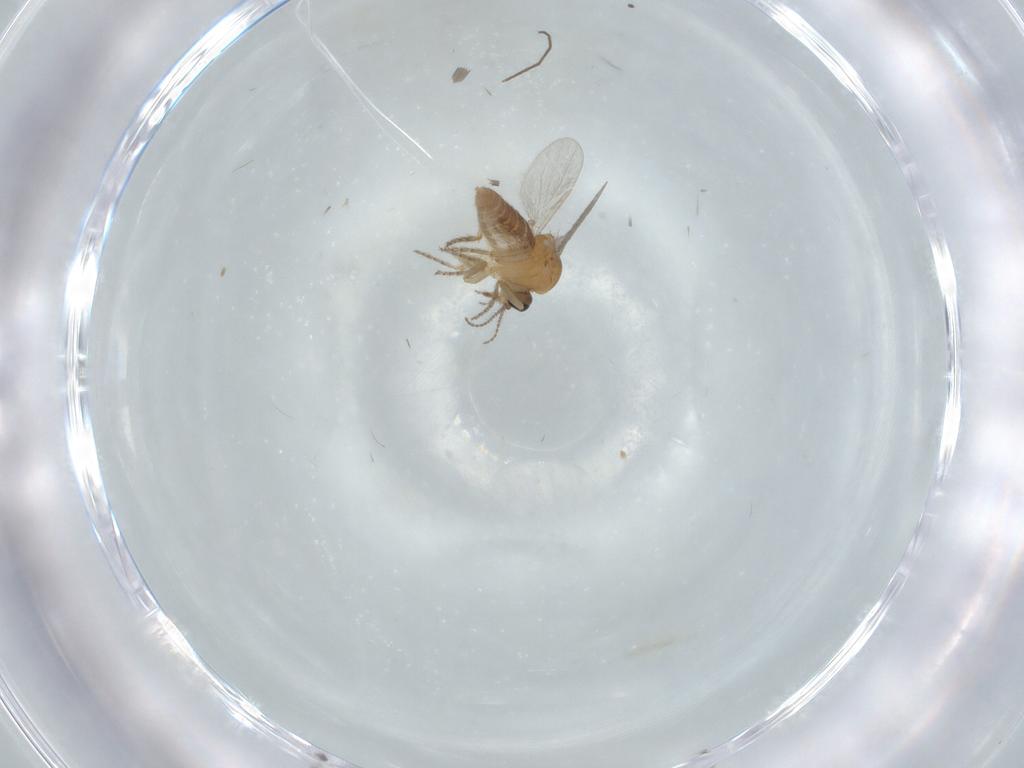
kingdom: Animalia
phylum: Arthropoda
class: Insecta
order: Diptera
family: Ceratopogonidae
